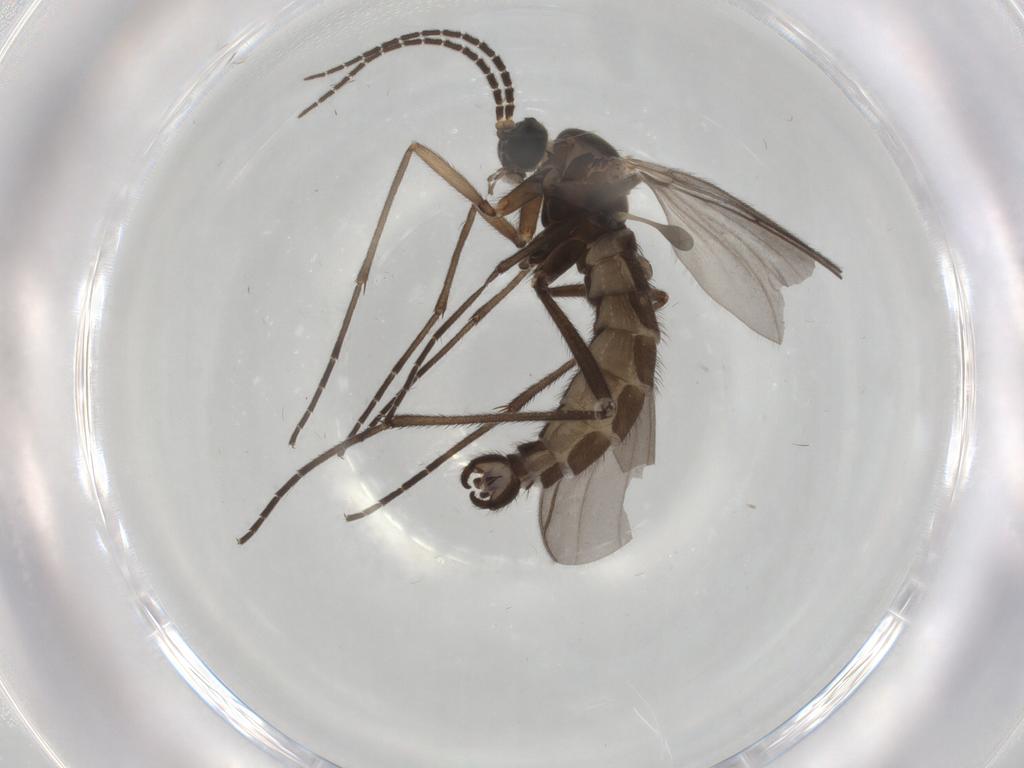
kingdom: Animalia
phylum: Arthropoda
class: Insecta
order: Diptera
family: Sciaridae
